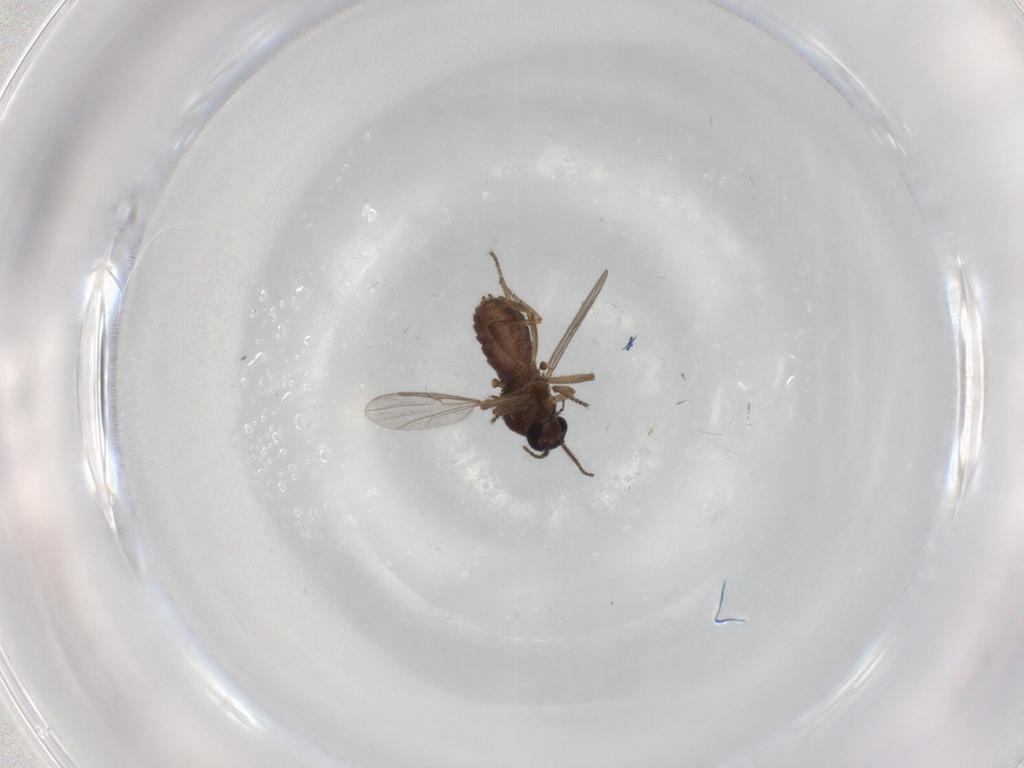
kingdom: Animalia
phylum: Arthropoda
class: Insecta
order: Diptera
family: Ceratopogonidae
